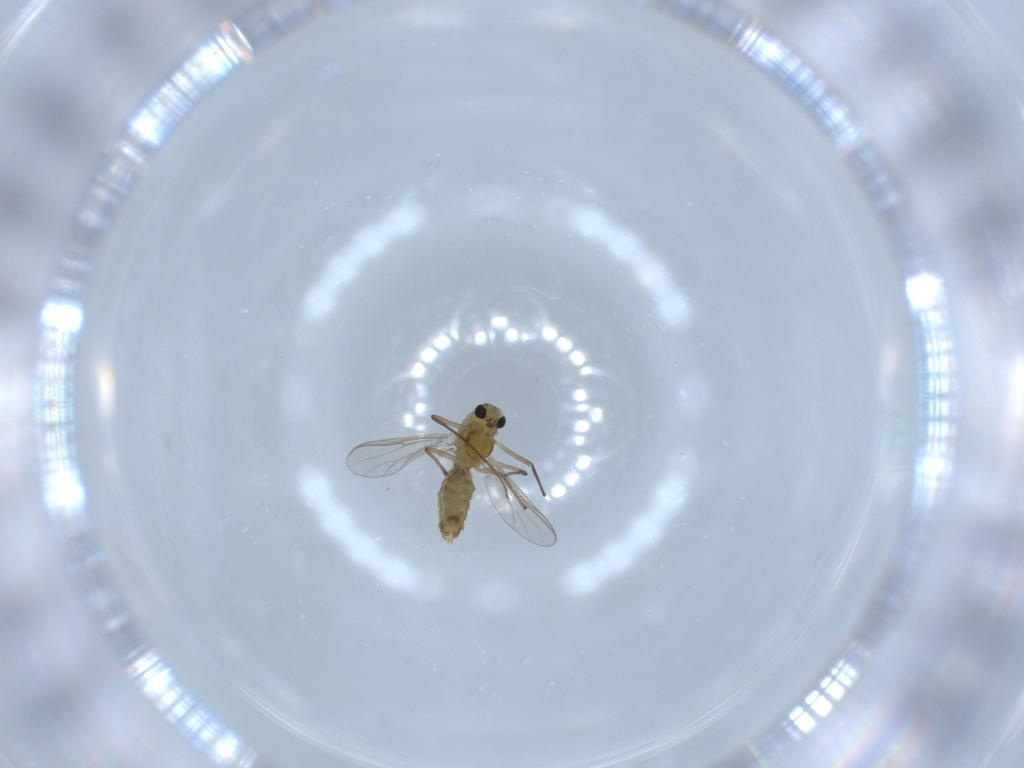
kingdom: Animalia
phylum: Arthropoda
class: Insecta
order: Diptera
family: Chironomidae
